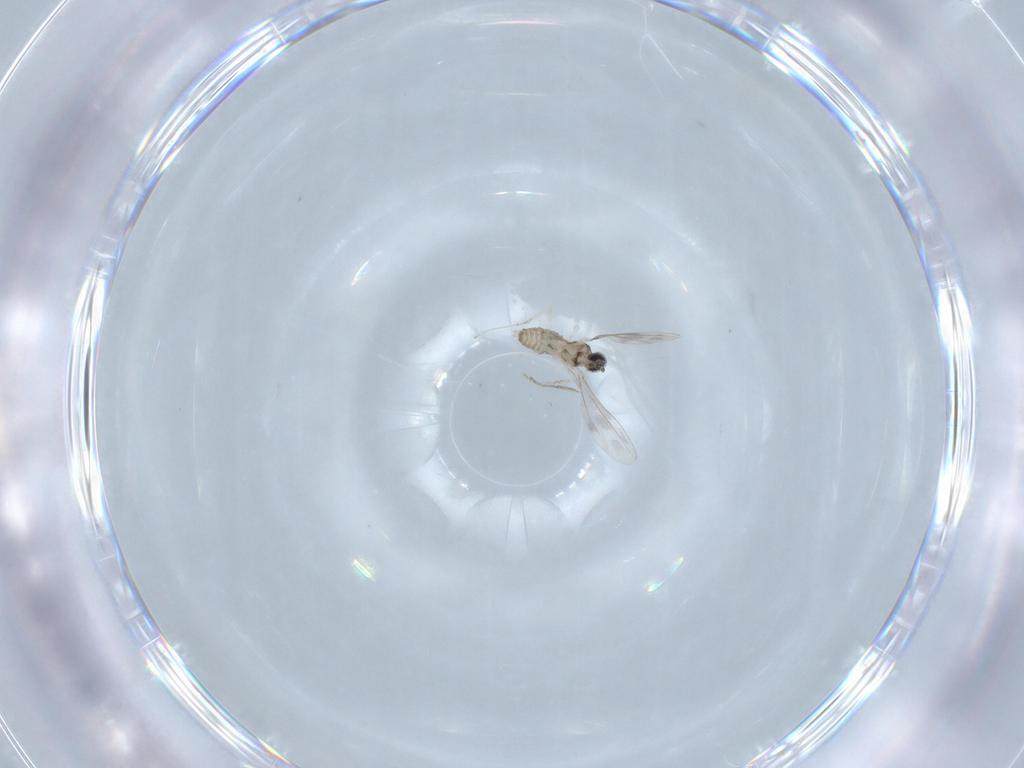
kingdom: Animalia
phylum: Arthropoda
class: Insecta
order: Diptera
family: Cecidomyiidae
